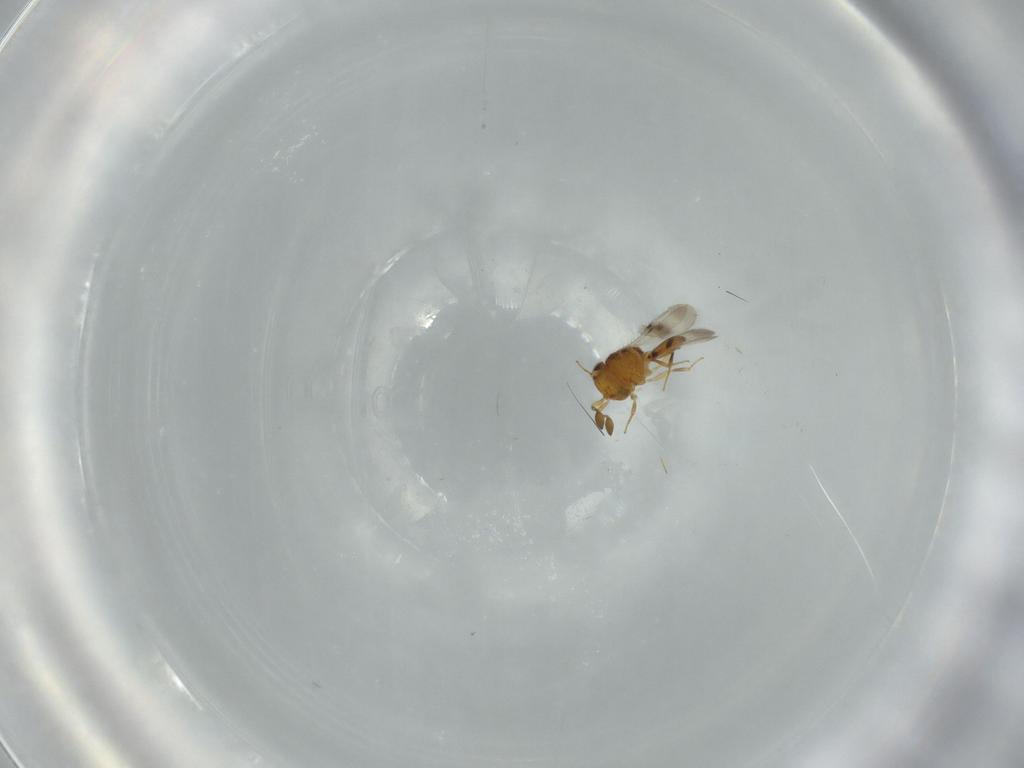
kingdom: Animalia
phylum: Arthropoda
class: Insecta
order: Hymenoptera
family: Scelionidae
